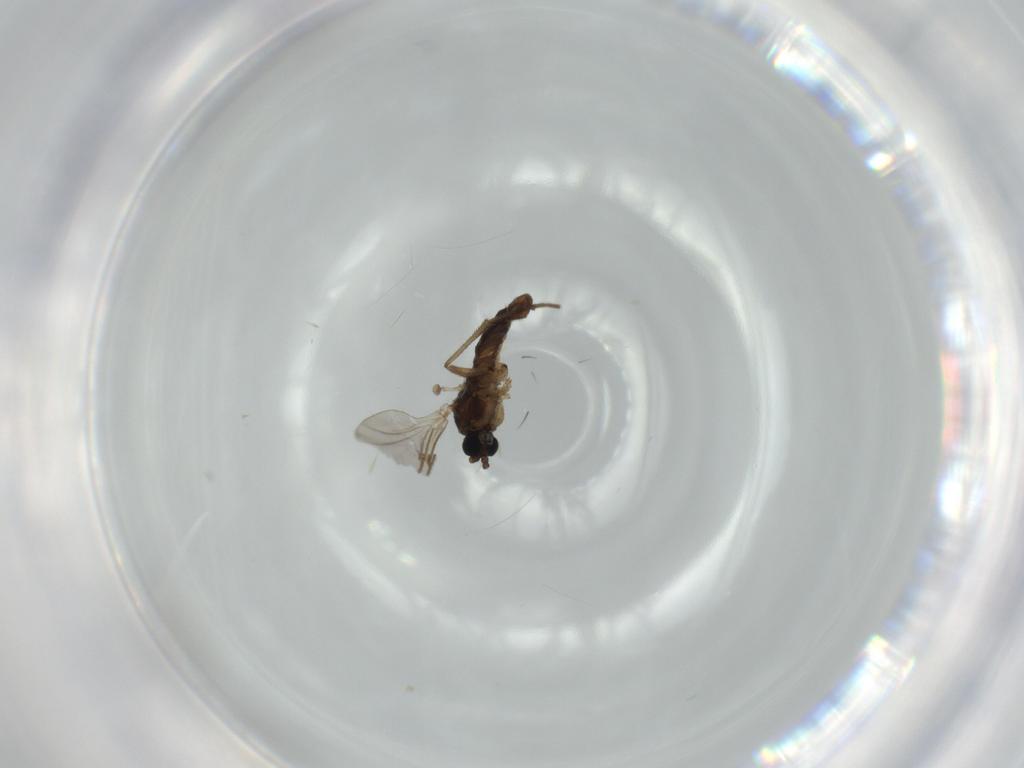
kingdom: Animalia
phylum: Arthropoda
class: Insecta
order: Diptera
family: Sciaridae
